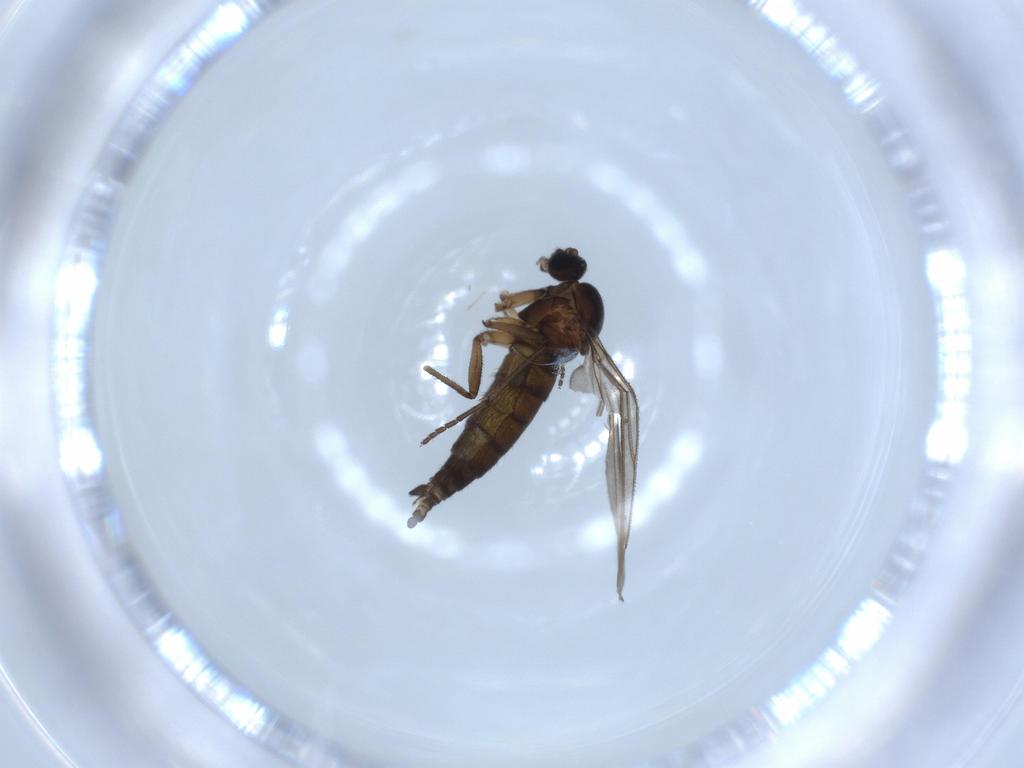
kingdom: Animalia
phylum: Arthropoda
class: Insecta
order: Diptera
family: Sciaridae
